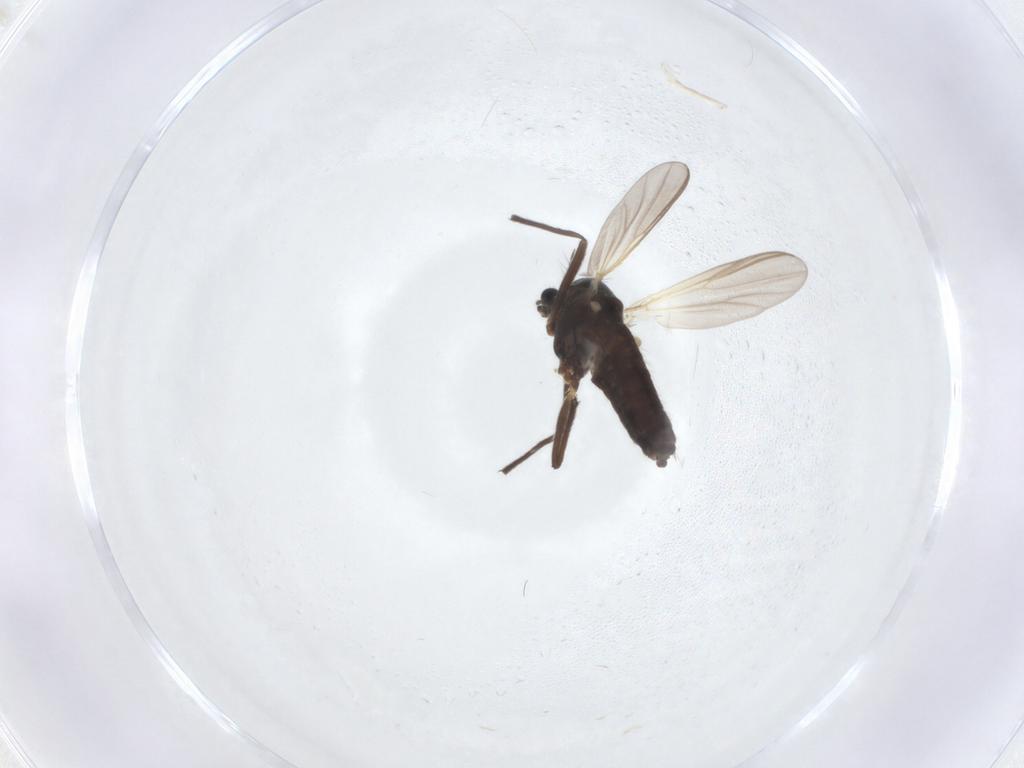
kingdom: Animalia
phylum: Arthropoda
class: Insecta
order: Diptera
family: Chironomidae
